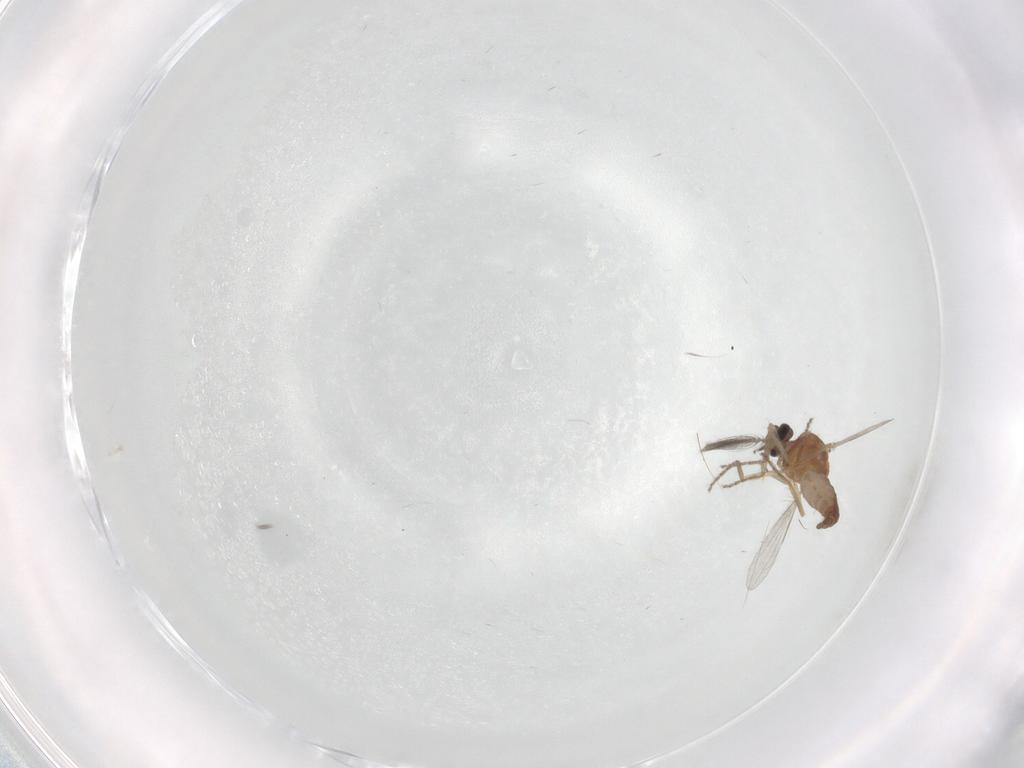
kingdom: Animalia
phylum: Arthropoda
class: Insecta
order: Diptera
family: Ceratopogonidae
